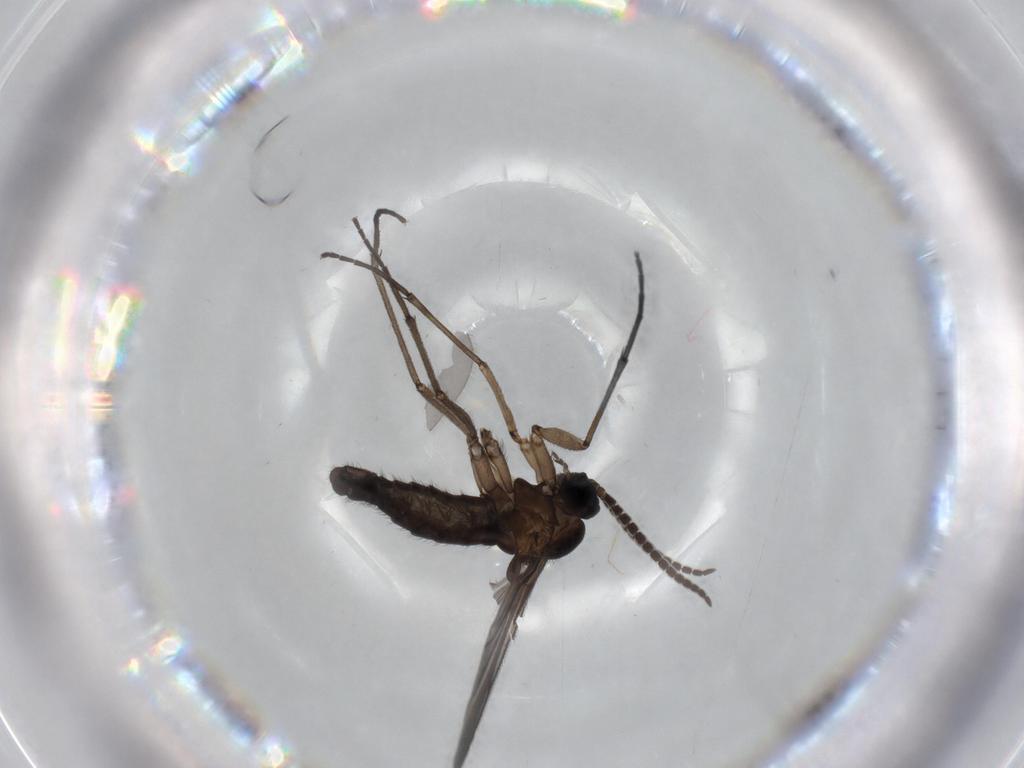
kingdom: Animalia
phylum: Arthropoda
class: Insecta
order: Diptera
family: Sciaridae
